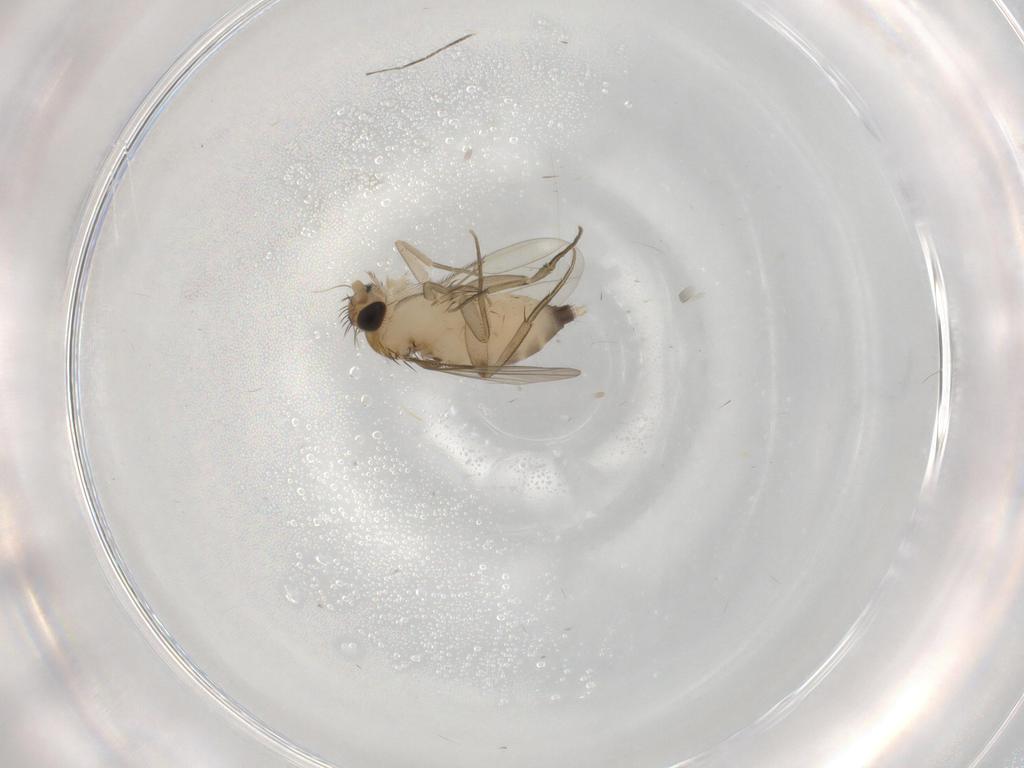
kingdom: Animalia
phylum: Arthropoda
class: Insecta
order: Diptera
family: Phoridae
